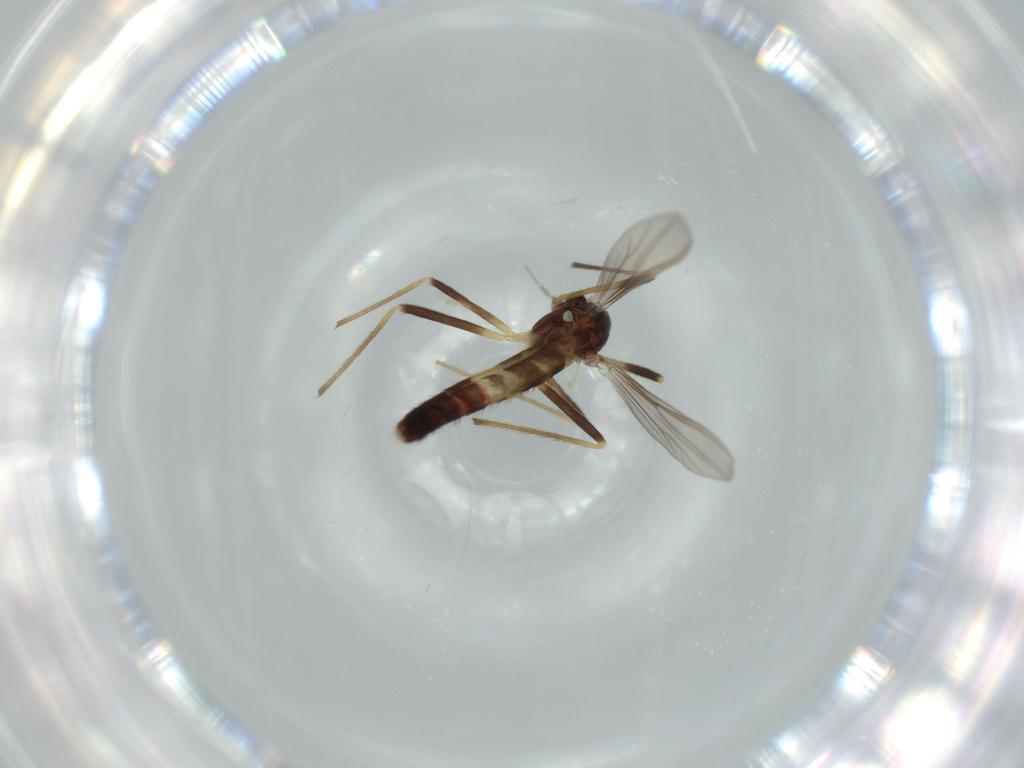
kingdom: Animalia
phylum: Arthropoda
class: Insecta
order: Diptera
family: Chironomidae
